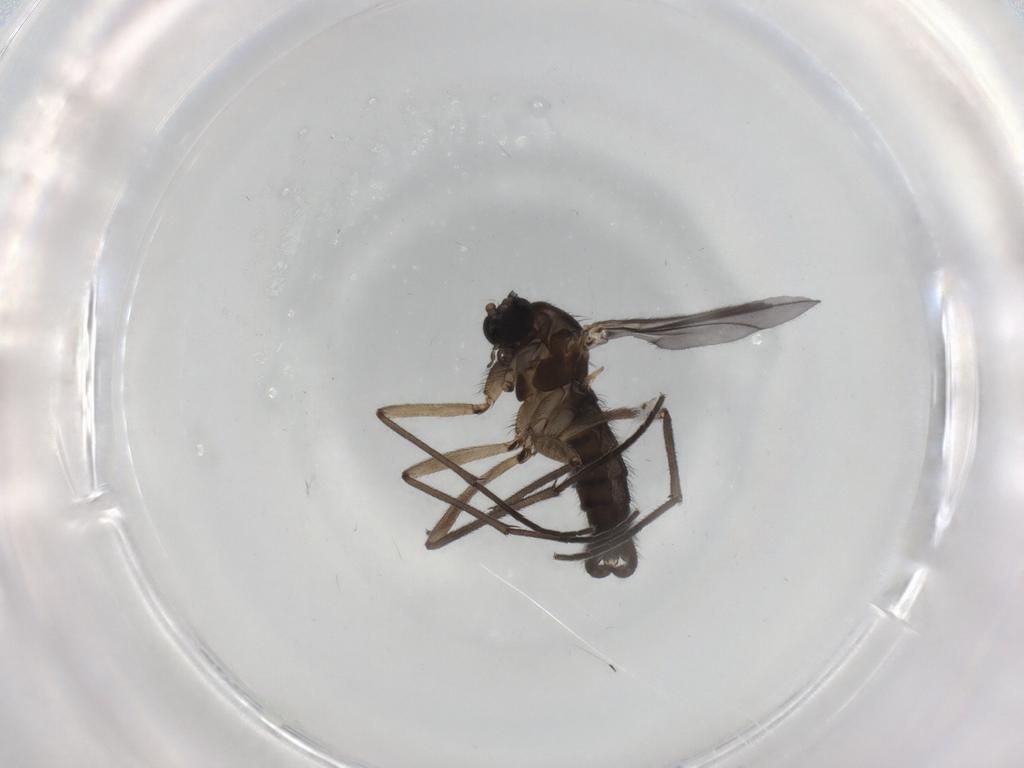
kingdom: Animalia
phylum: Arthropoda
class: Insecta
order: Diptera
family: Sciaridae
